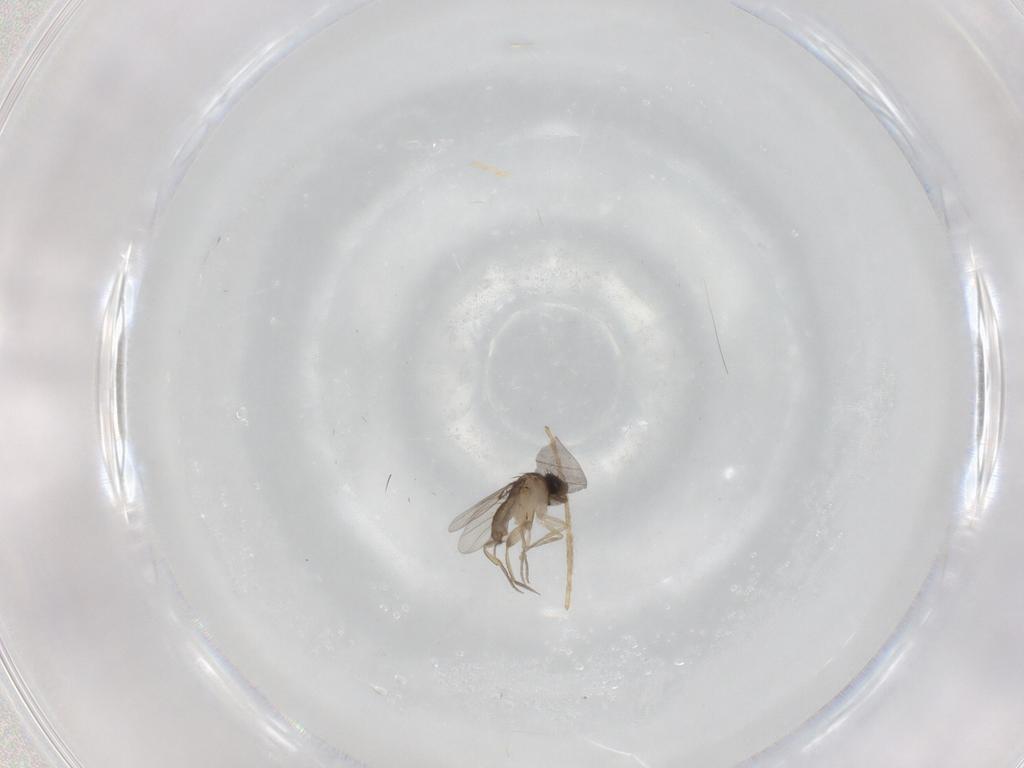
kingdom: Animalia
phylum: Arthropoda
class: Insecta
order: Diptera
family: Phoridae
